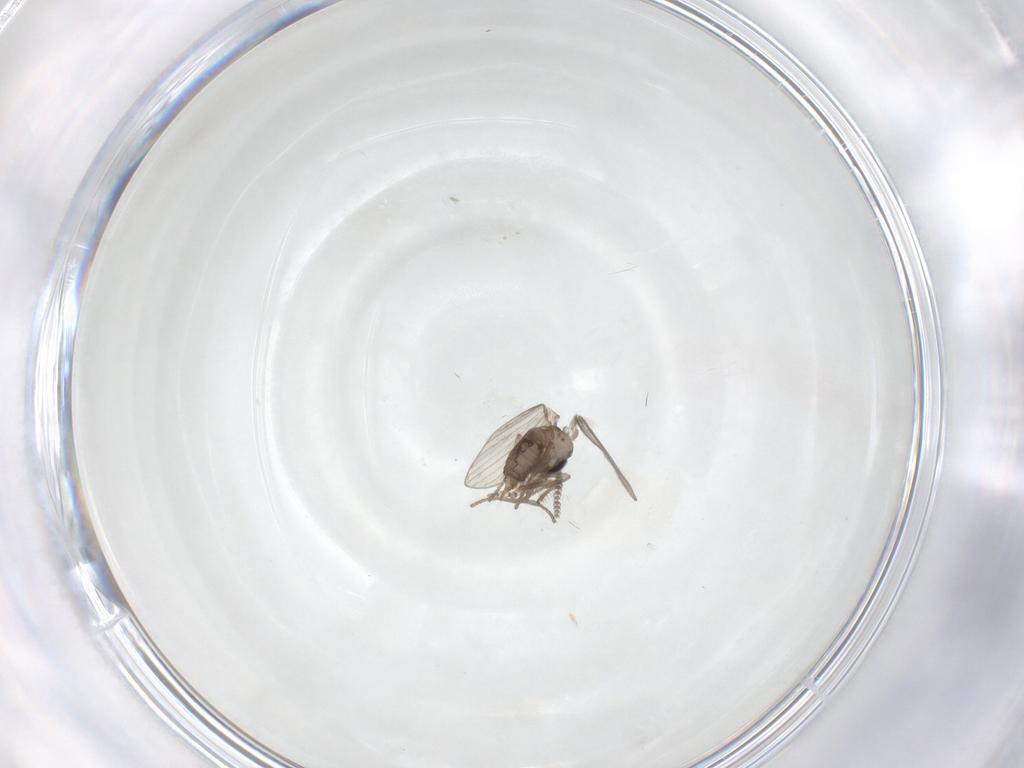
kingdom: Animalia
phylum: Arthropoda
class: Insecta
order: Diptera
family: Cecidomyiidae
